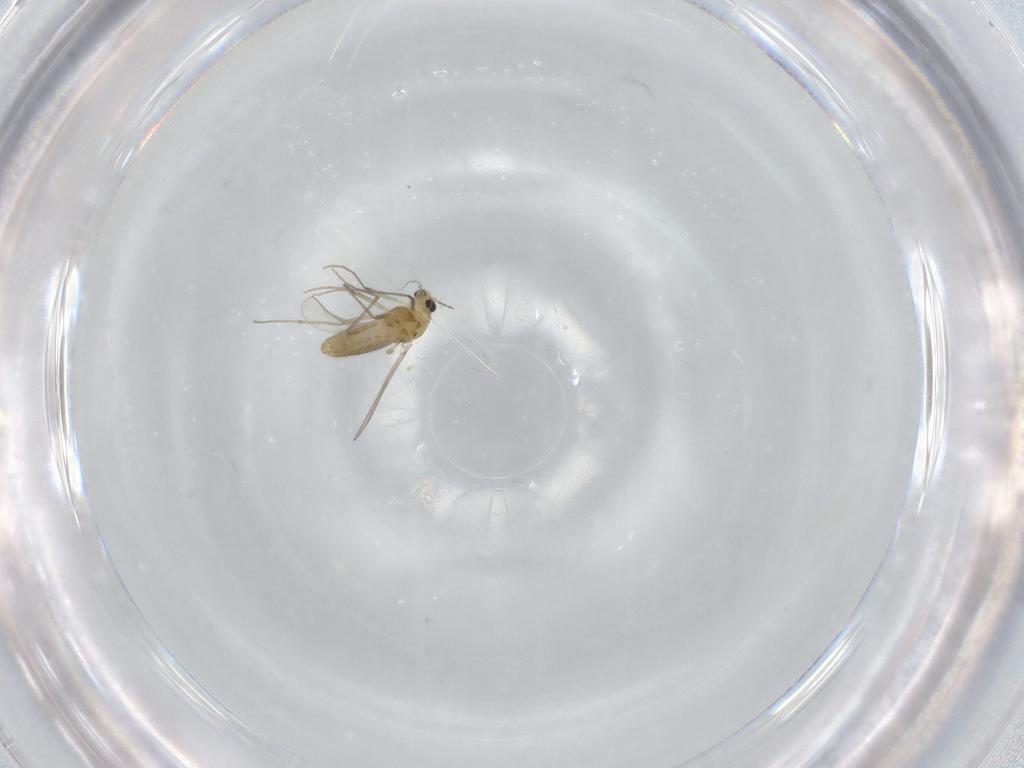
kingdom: Animalia
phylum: Arthropoda
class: Insecta
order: Diptera
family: Chironomidae
